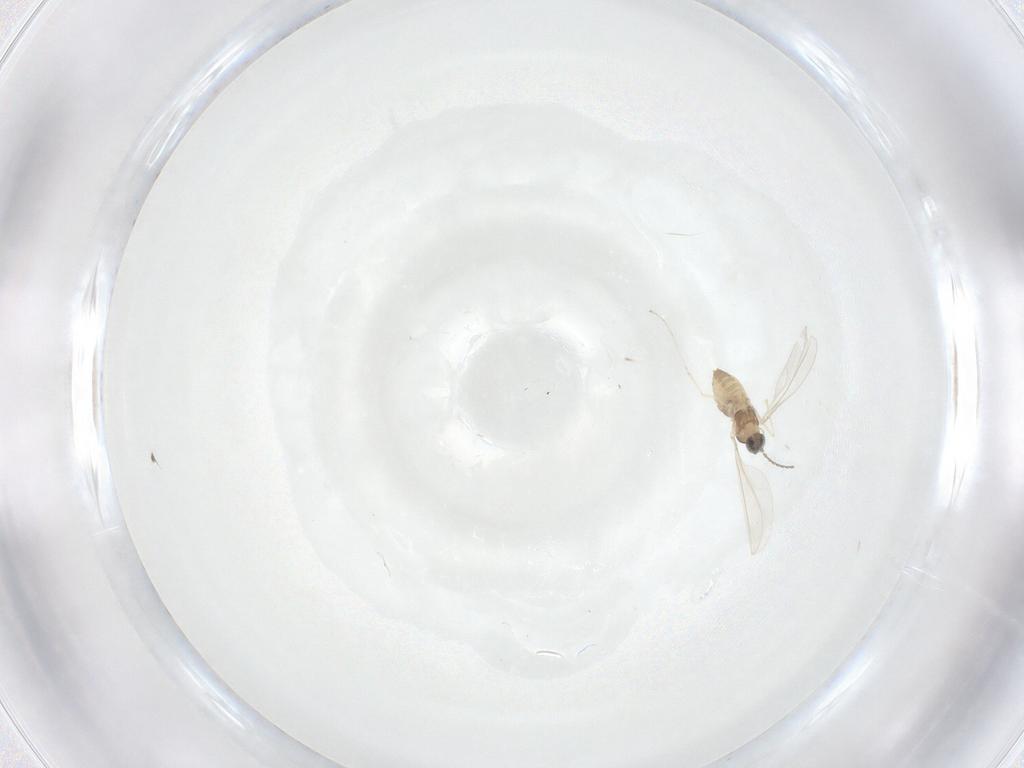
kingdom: Animalia
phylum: Arthropoda
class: Insecta
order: Diptera
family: Cecidomyiidae
